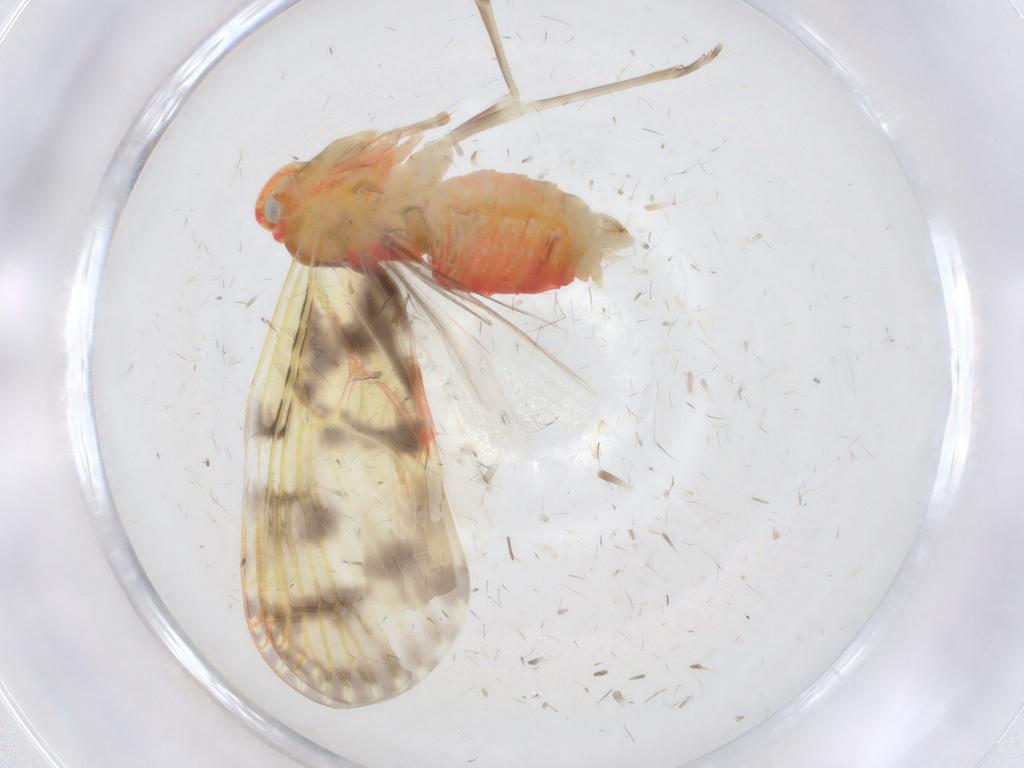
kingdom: Animalia
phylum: Arthropoda
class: Insecta
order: Hemiptera
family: Derbidae
